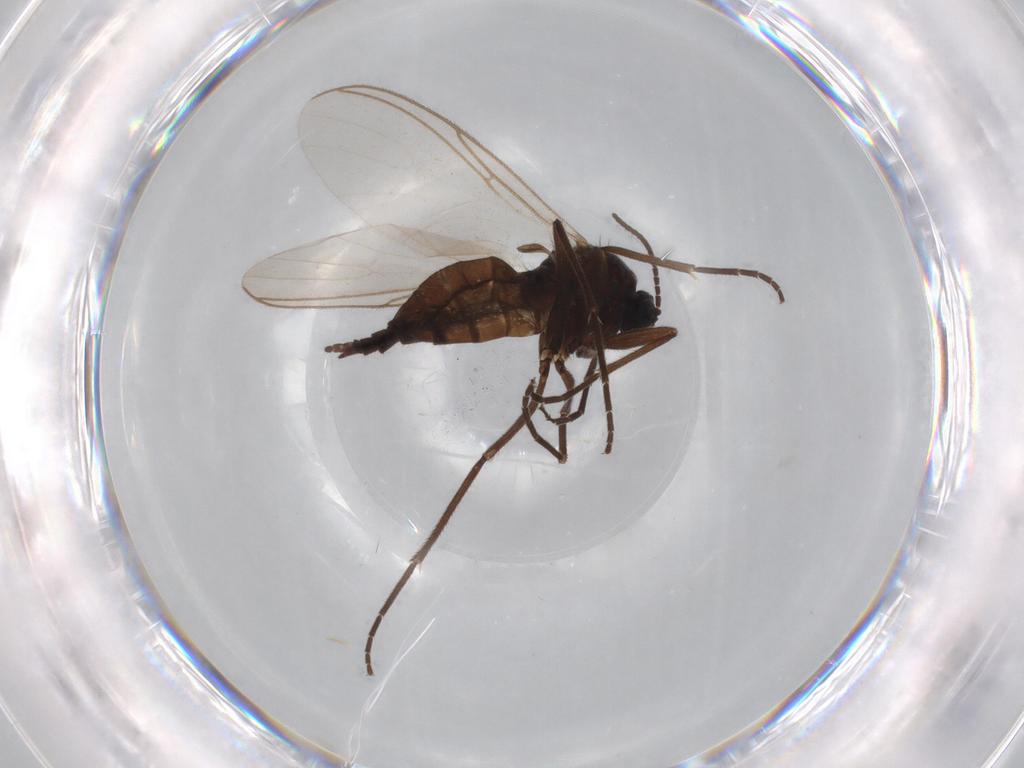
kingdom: Animalia
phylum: Arthropoda
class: Insecta
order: Diptera
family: Sciaridae
